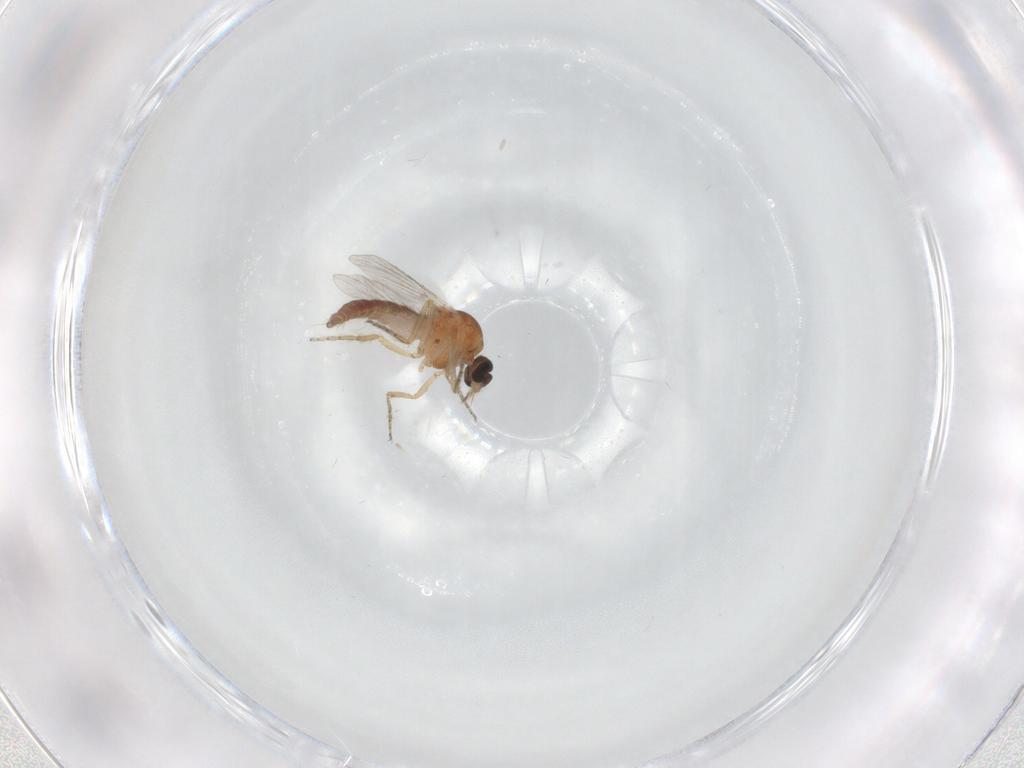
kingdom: Animalia
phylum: Arthropoda
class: Insecta
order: Diptera
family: Ceratopogonidae
